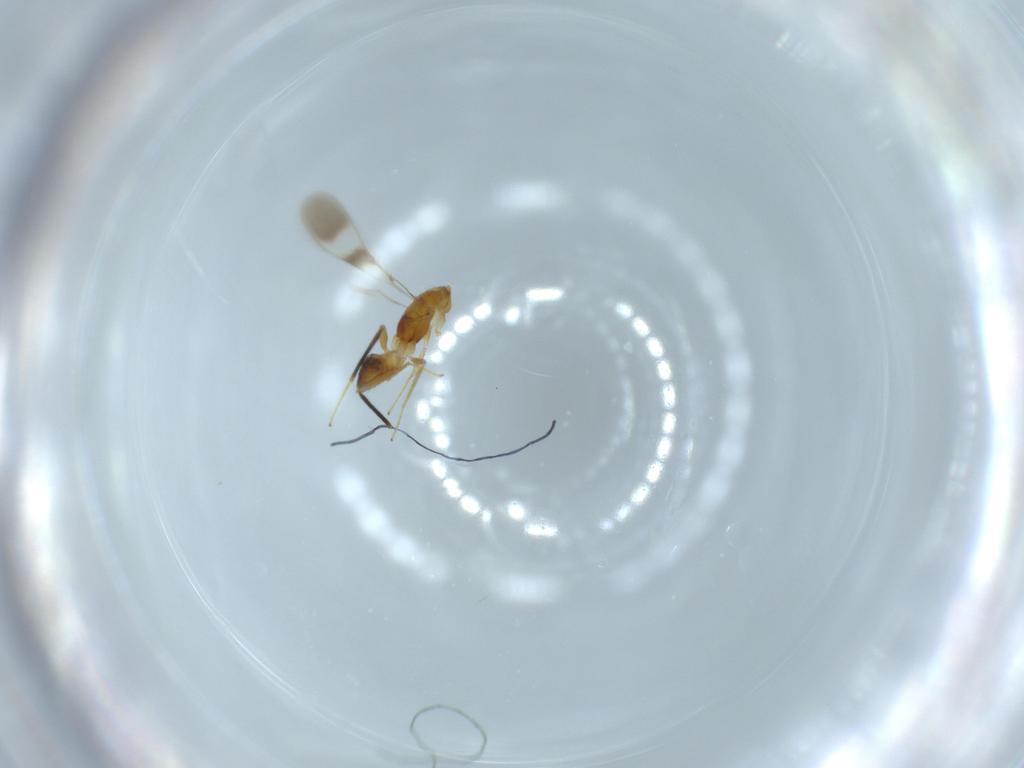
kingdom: Animalia
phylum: Arthropoda
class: Insecta
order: Hymenoptera
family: Mymaridae
